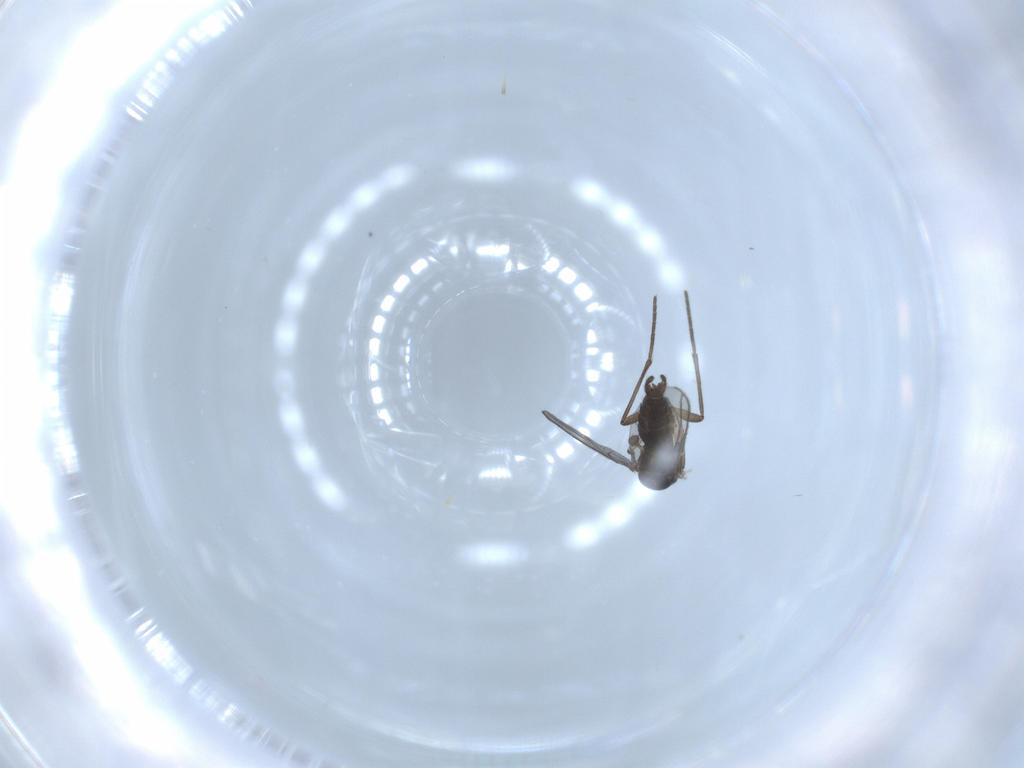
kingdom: Animalia
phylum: Arthropoda
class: Insecta
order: Diptera
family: Sciaridae
